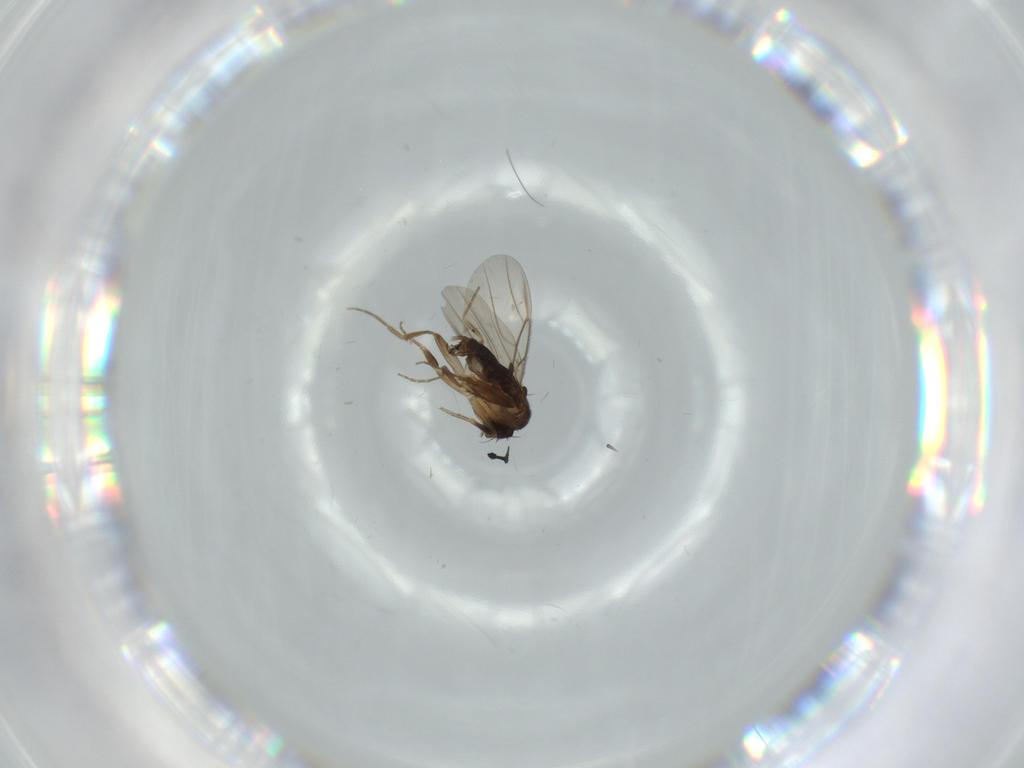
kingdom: Animalia
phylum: Arthropoda
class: Insecta
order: Diptera
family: Phoridae
